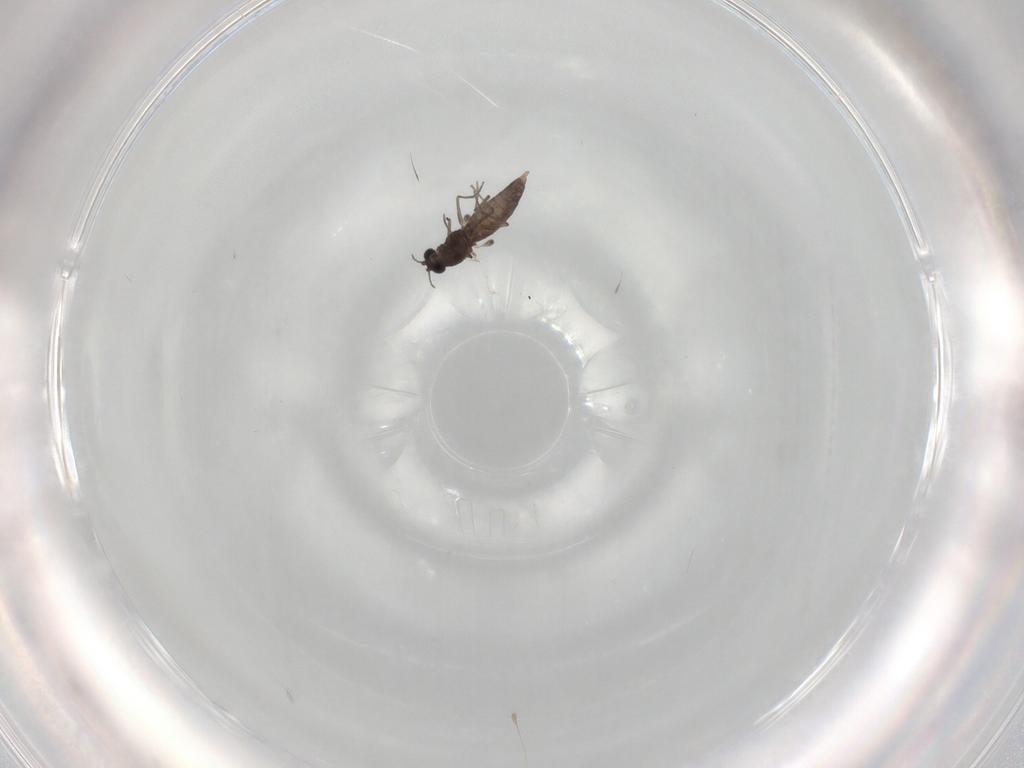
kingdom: Animalia
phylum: Arthropoda
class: Insecta
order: Diptera
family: Chironomidae
